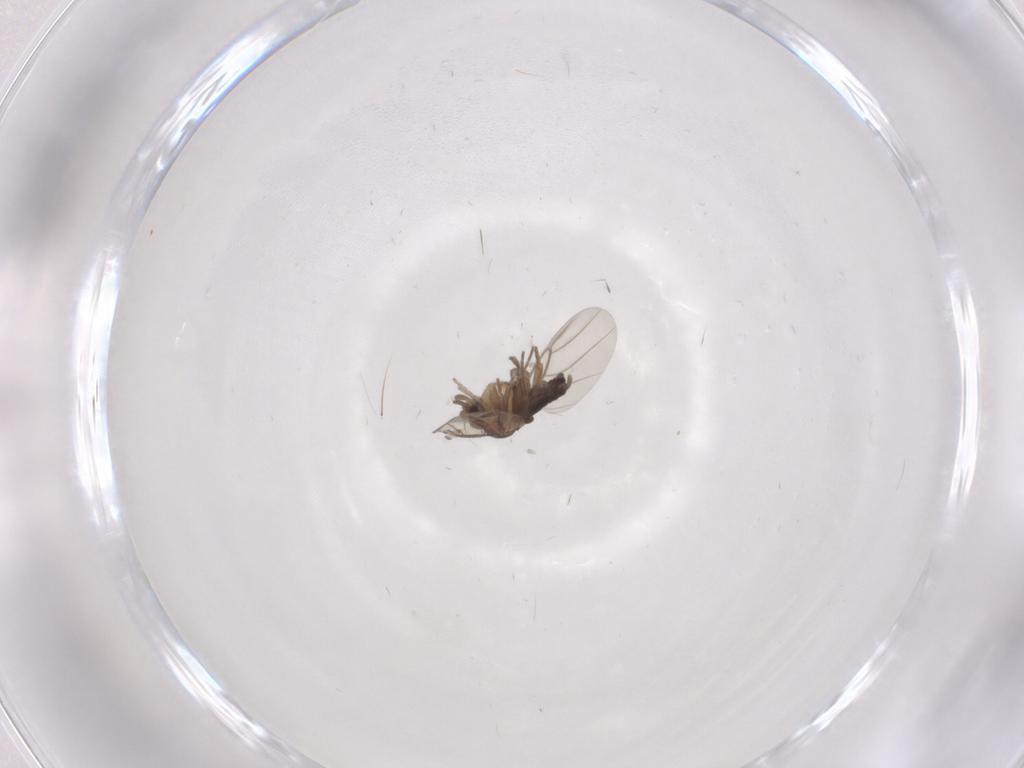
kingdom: Animalia
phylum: Arthropoda
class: Insecta
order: Diptera
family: Phoridae
